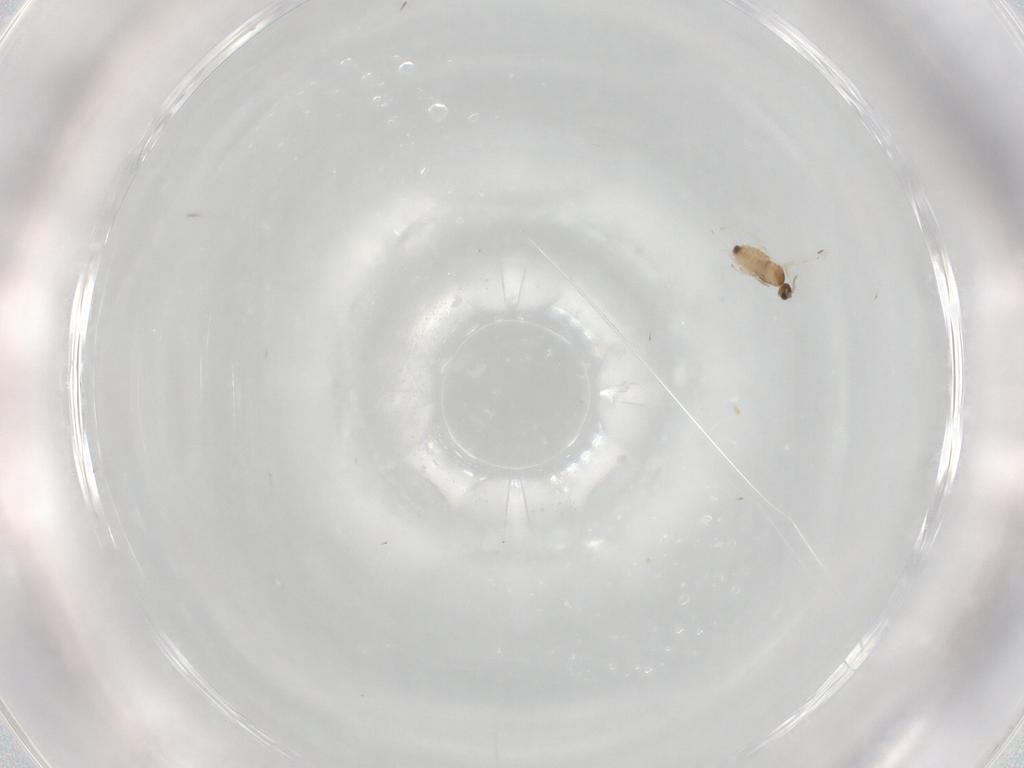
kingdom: Animalia
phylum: Arthropoda
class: Insecta
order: Diptera
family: Cecidomyiidae
